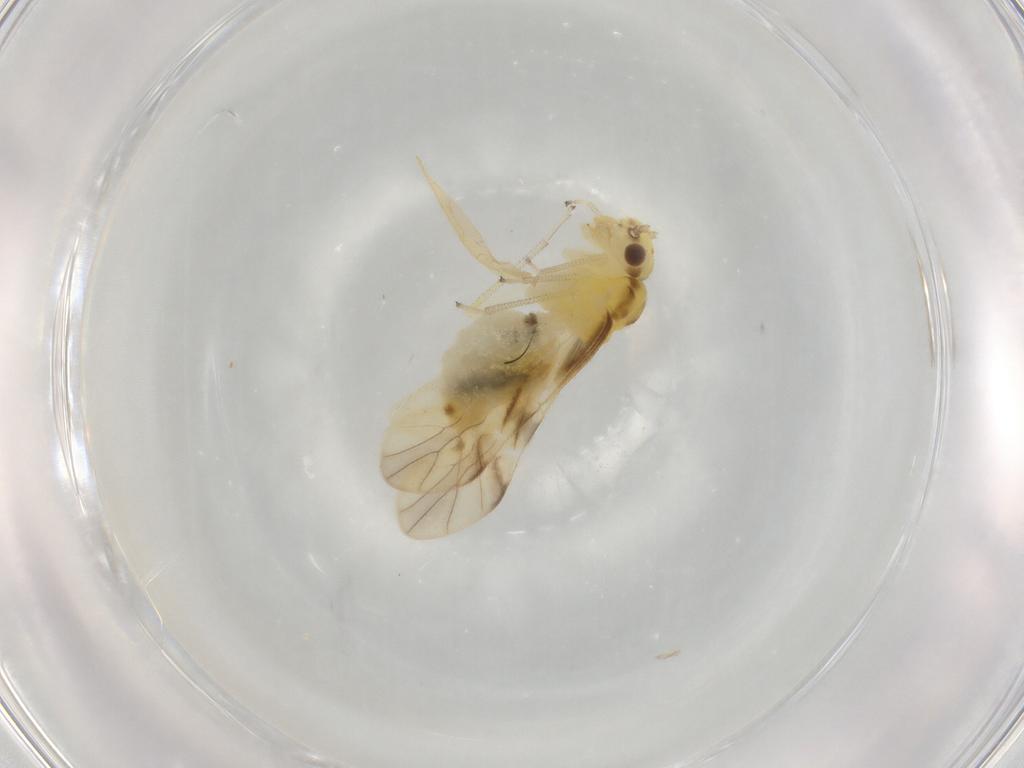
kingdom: Animalia
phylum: Arthropoda
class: Insecta
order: Psocodea
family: Caeciliusidae
